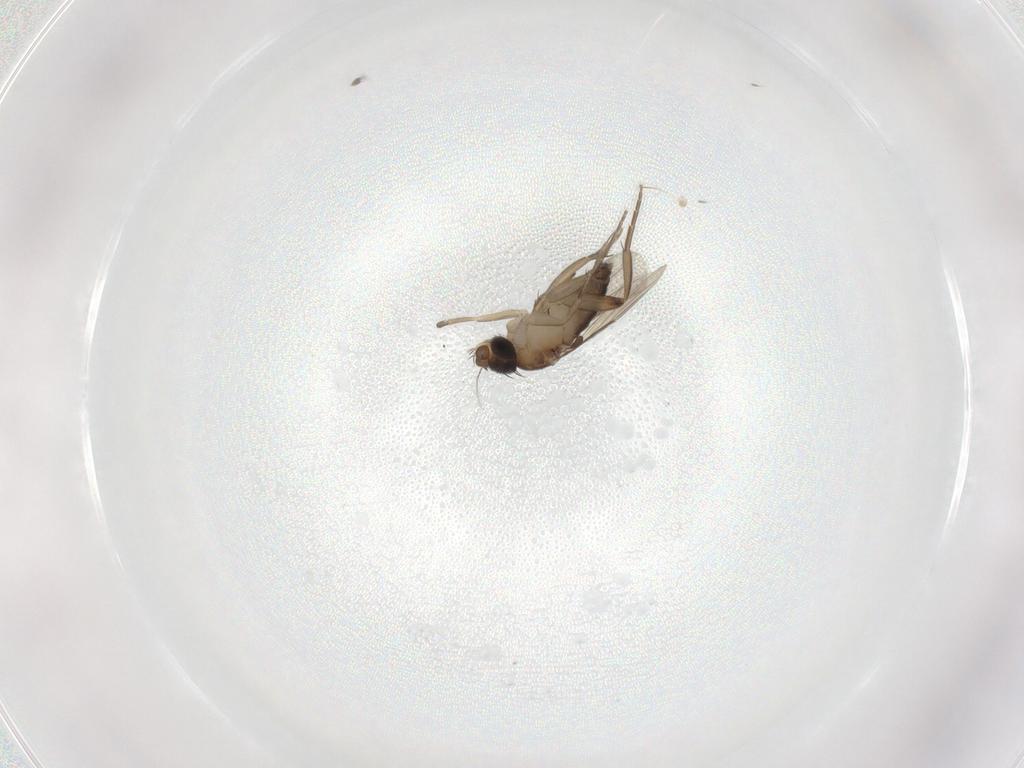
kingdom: Animalia
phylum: Arthropoda
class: Insecta
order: Diptera
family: Phoridae
